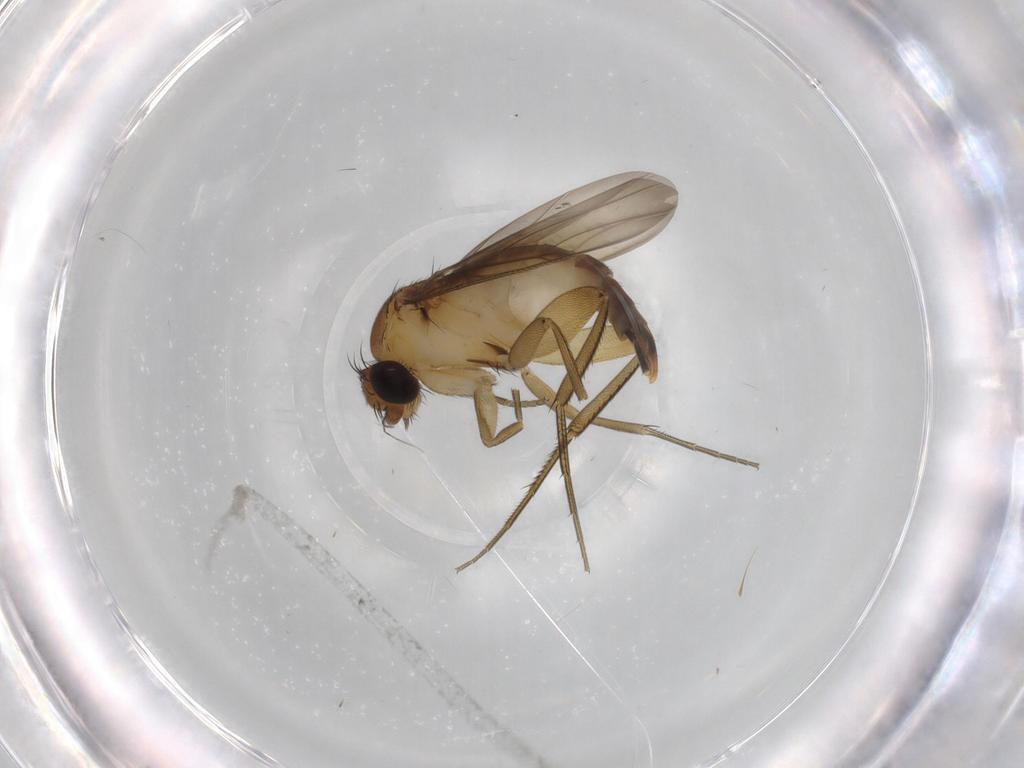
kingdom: Animalia
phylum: Arthropoda
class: Insecta
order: Diptera
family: Phoridae
